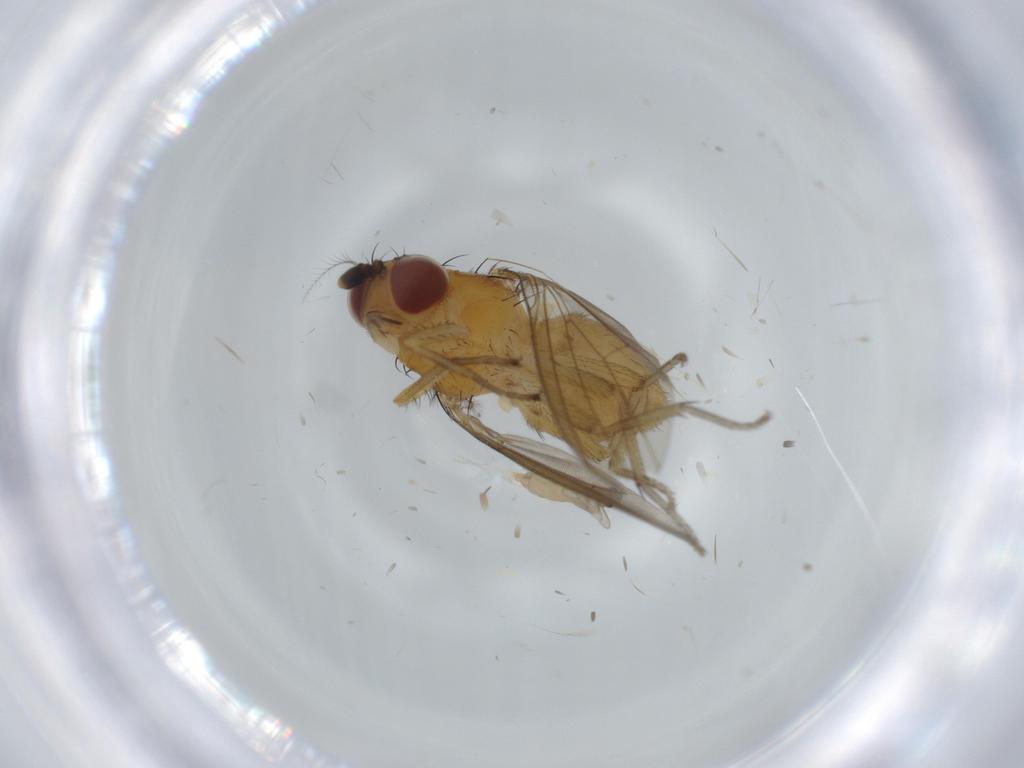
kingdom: Animalia
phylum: Arthropoda
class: Insecta
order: Diptera
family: Cecidomyiidae
